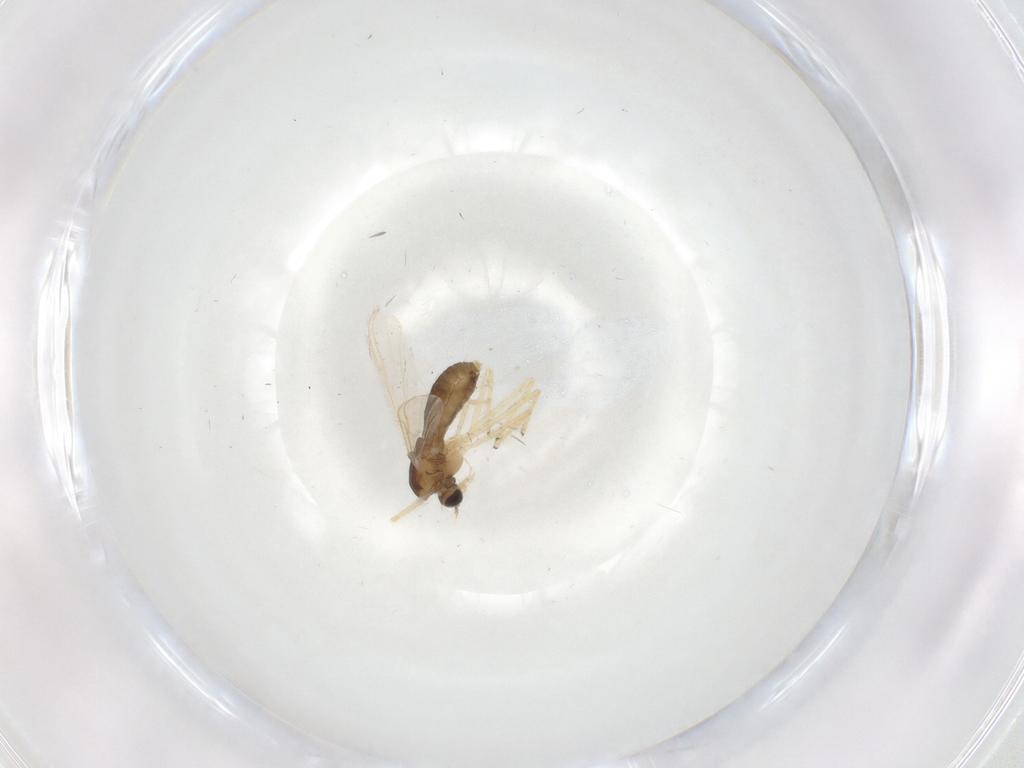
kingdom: Animalia
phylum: Arthropoda
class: Insecta
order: Diptera
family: Chironomidae
